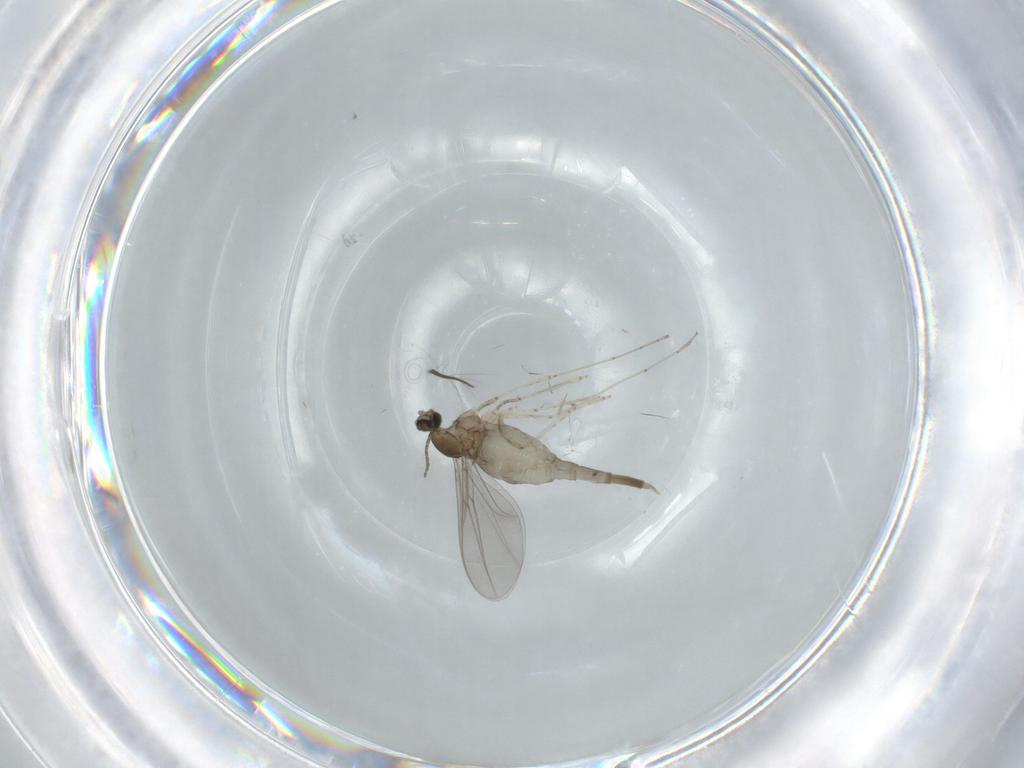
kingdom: Animalia
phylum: Arthropoda
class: Insecta
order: Diptera
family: Cecidomyiidae
